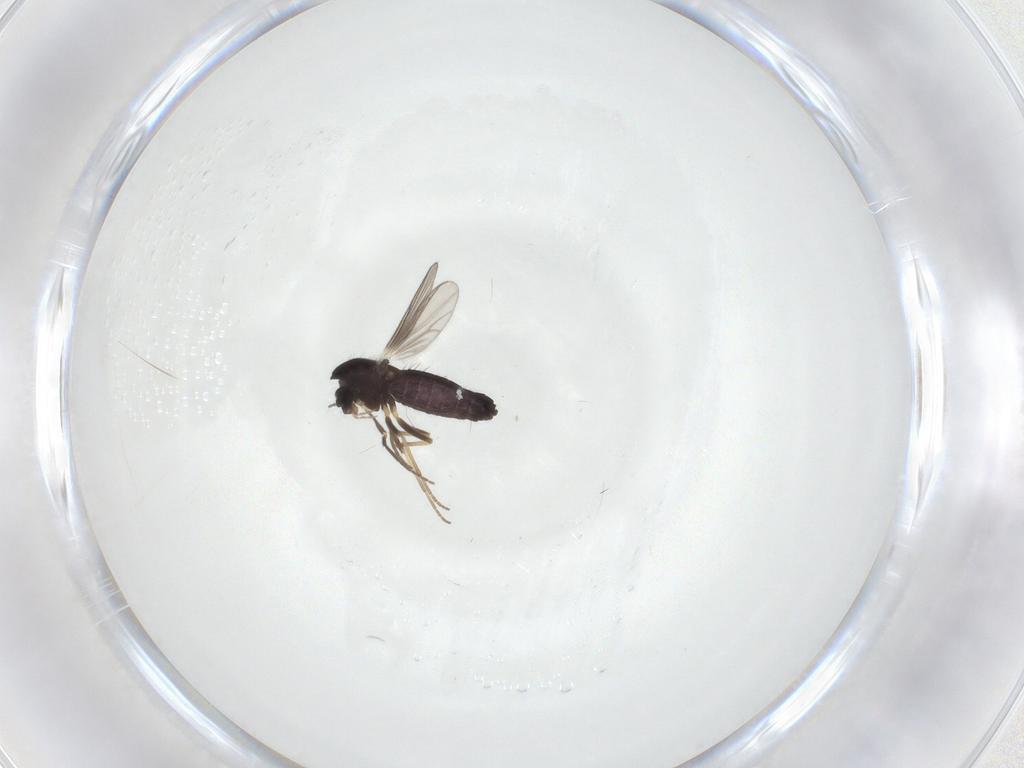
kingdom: Animalia
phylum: Arthropoda
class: Insecta
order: Diptera
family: Chironomidae
